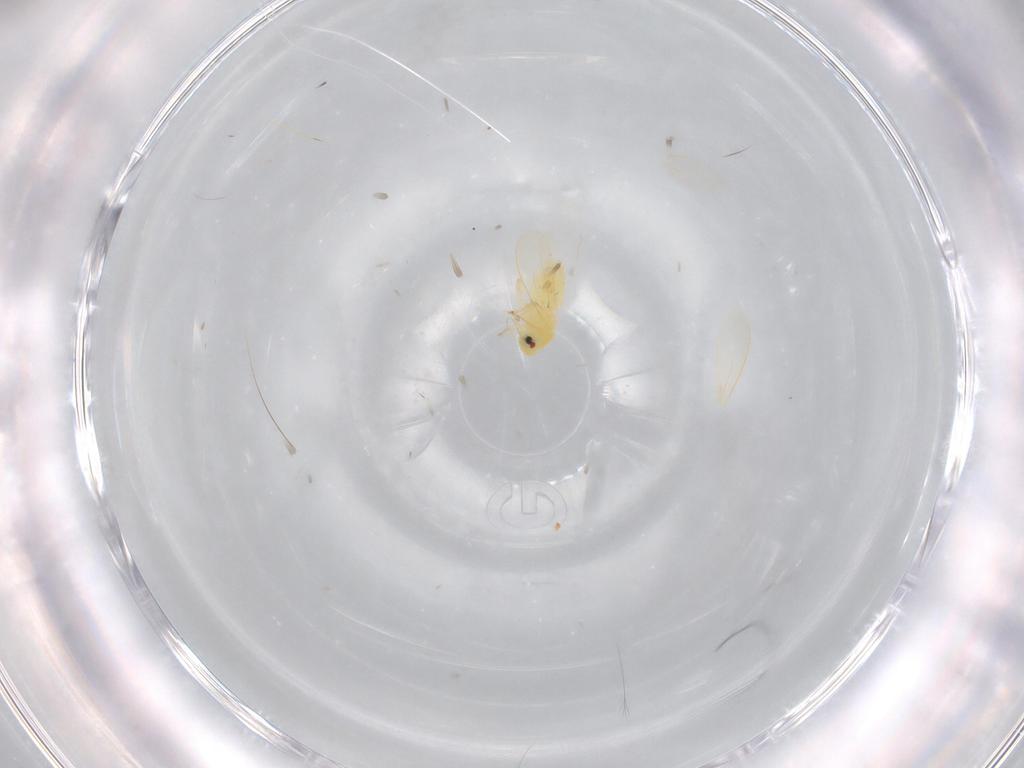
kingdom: Animalia
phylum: Arthropoda
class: Insecta
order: Hemiptera
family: Aleyrodidae
